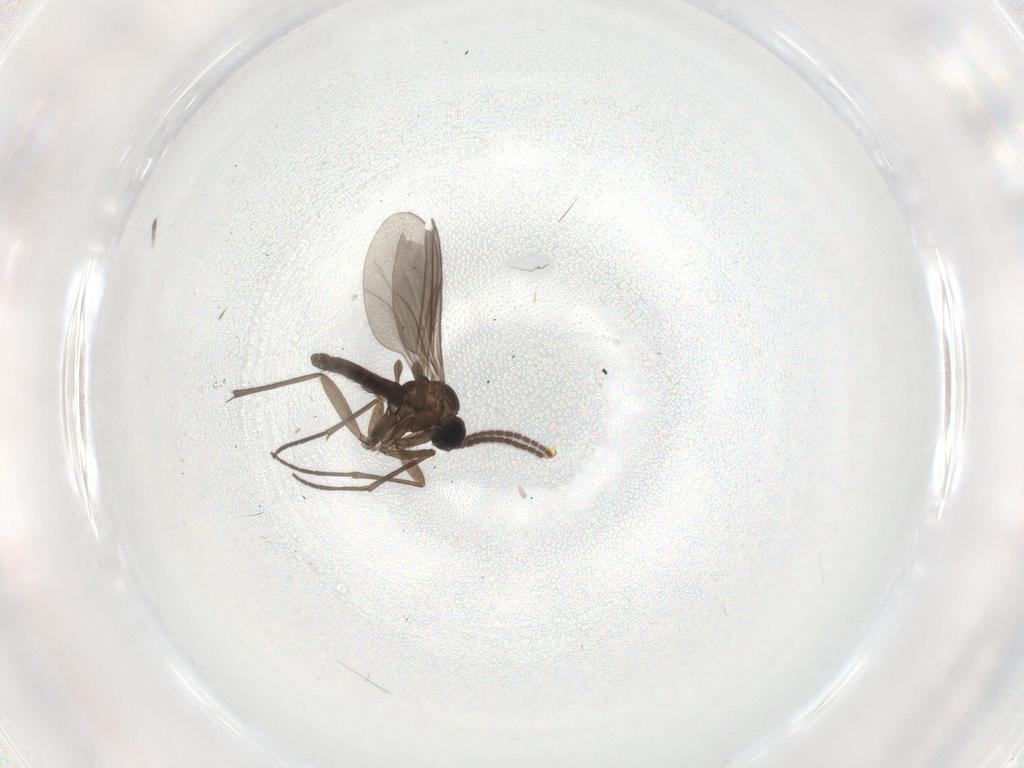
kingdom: Animalia
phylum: Arthropoda
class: Insecta
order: Diptera
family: Sciaridae
